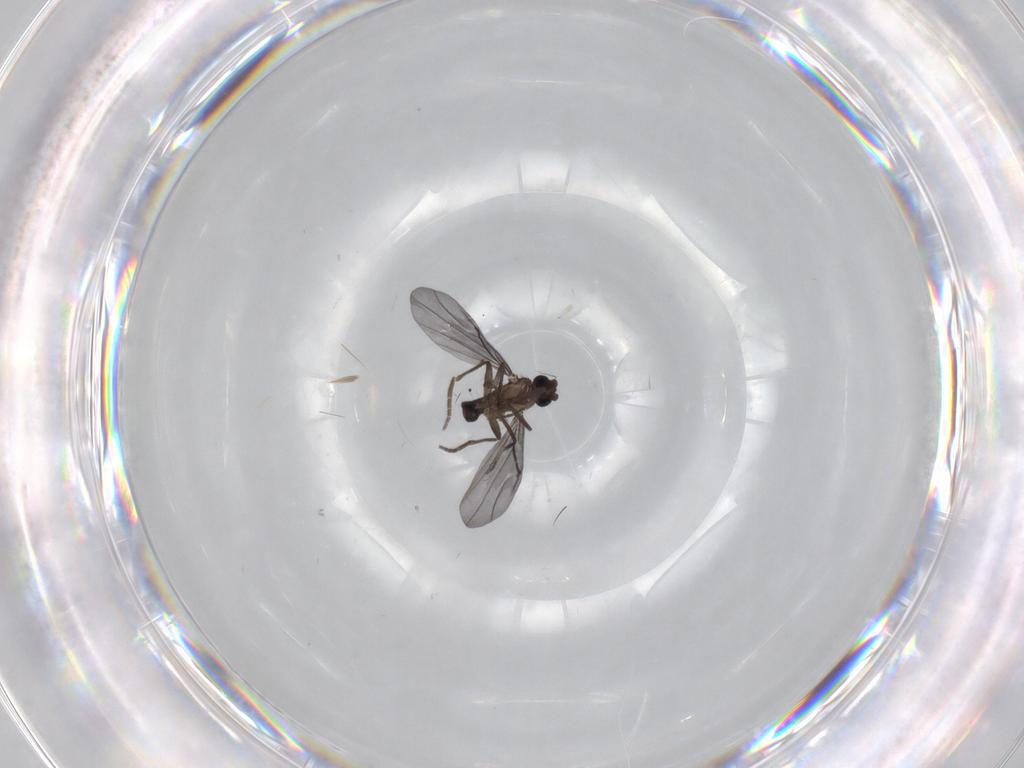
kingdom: Animalia
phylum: Arthropoda
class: Insecta
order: Diptera
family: Phoridae
